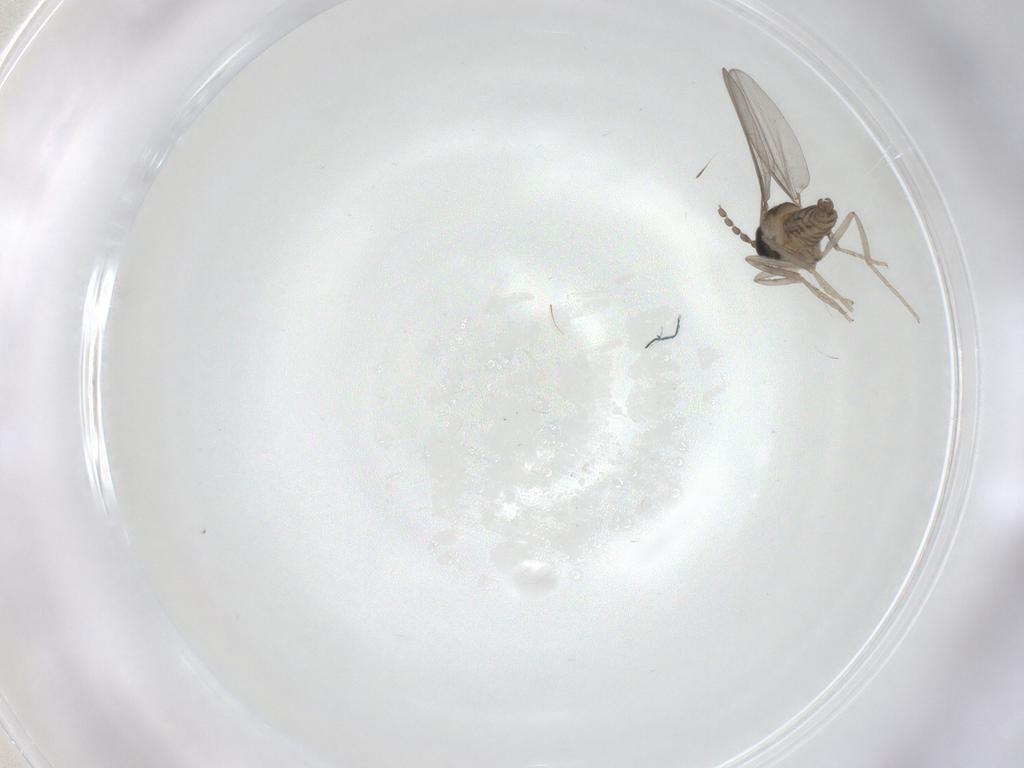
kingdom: Animalia
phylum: Arthropoda
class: Insecta
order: Diptera
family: Cecidomyiidae
